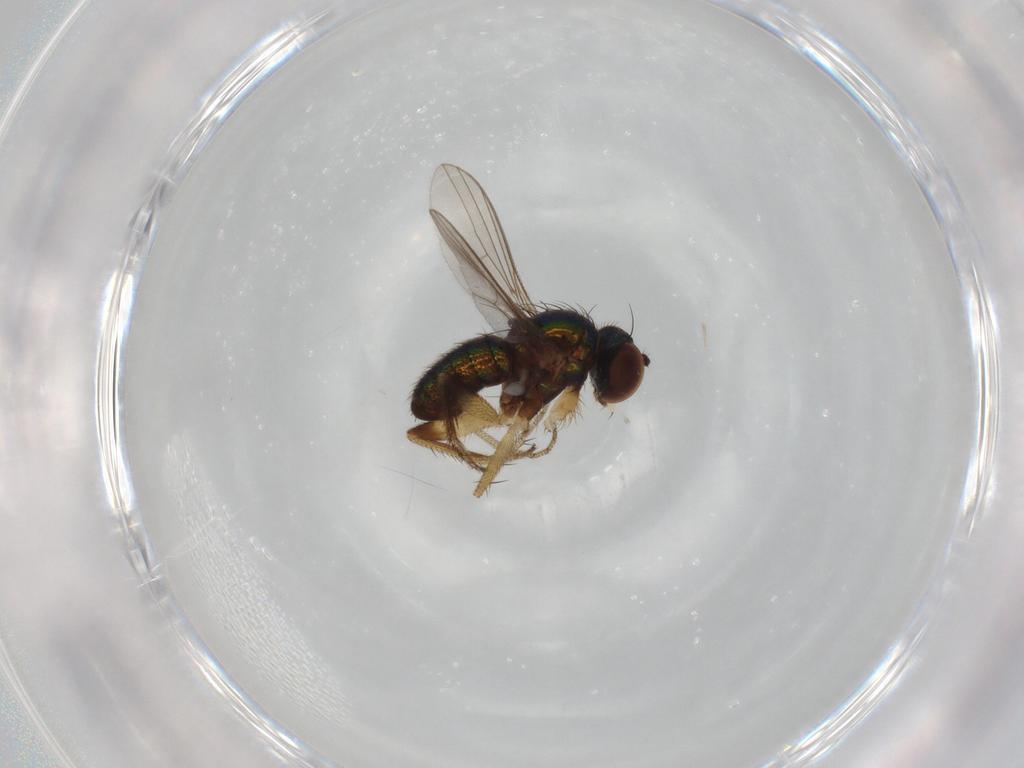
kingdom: Animalia
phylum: Arthropoda
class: Insecta
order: Diptera
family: Dolichopodidae
